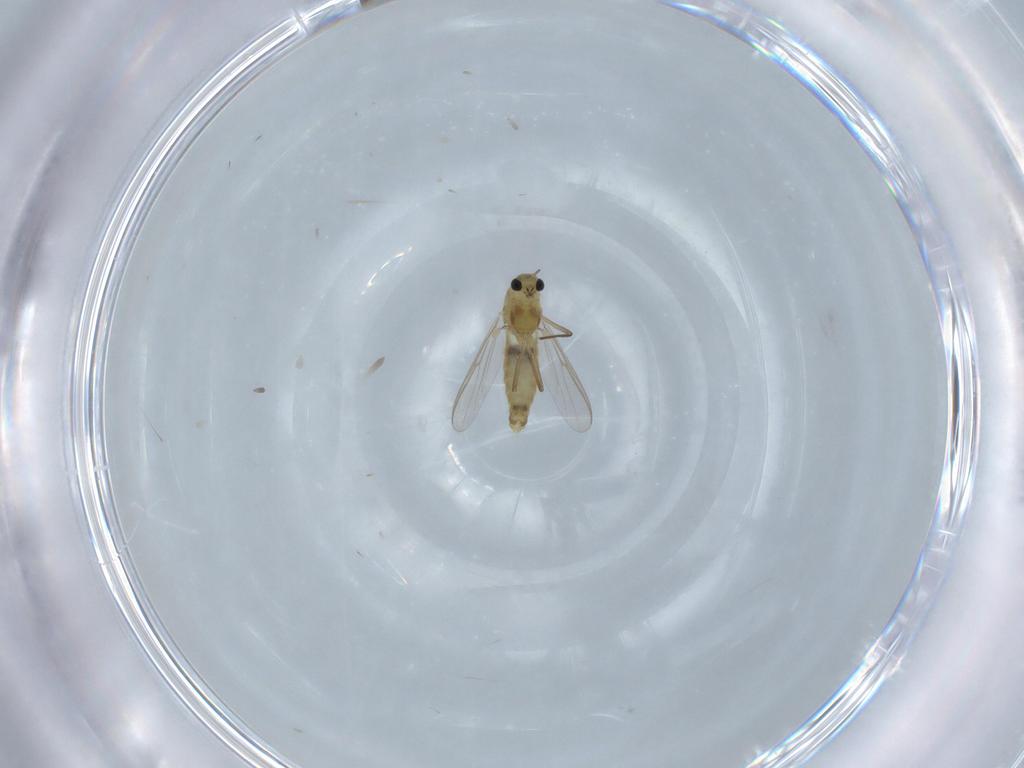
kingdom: Animalia
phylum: Arthropoda
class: Insecta
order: Diptera
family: Chironomidae
